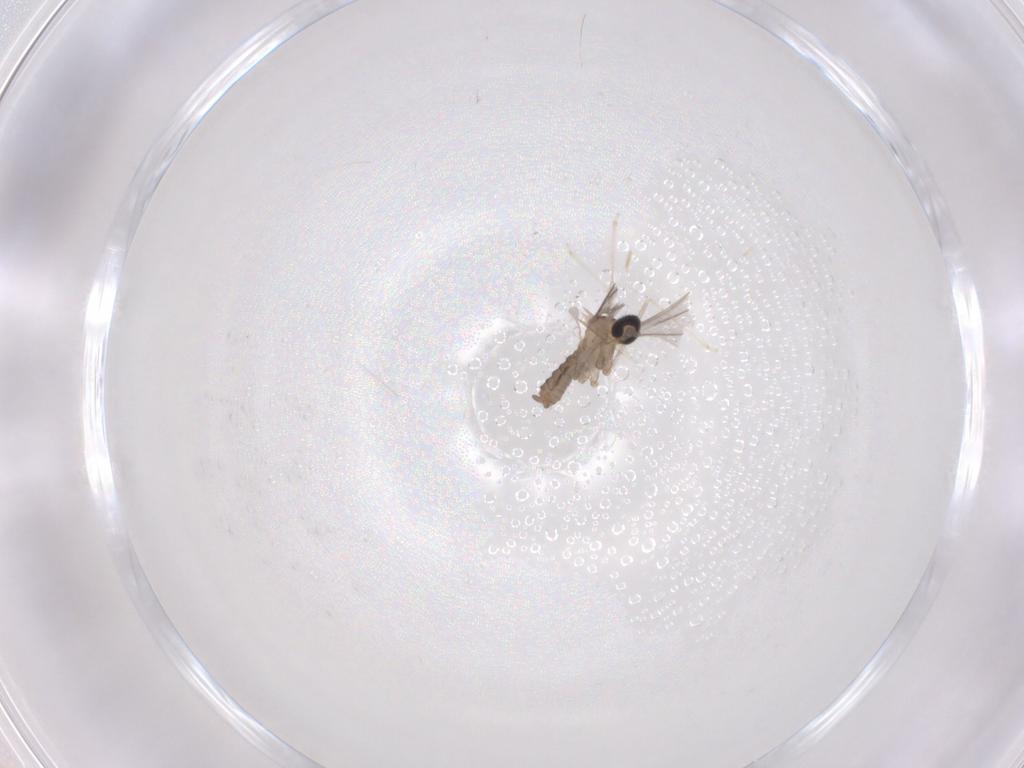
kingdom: Animalia
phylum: Arthropoda
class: Insecta
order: Diptera
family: Cecidomyiidae
